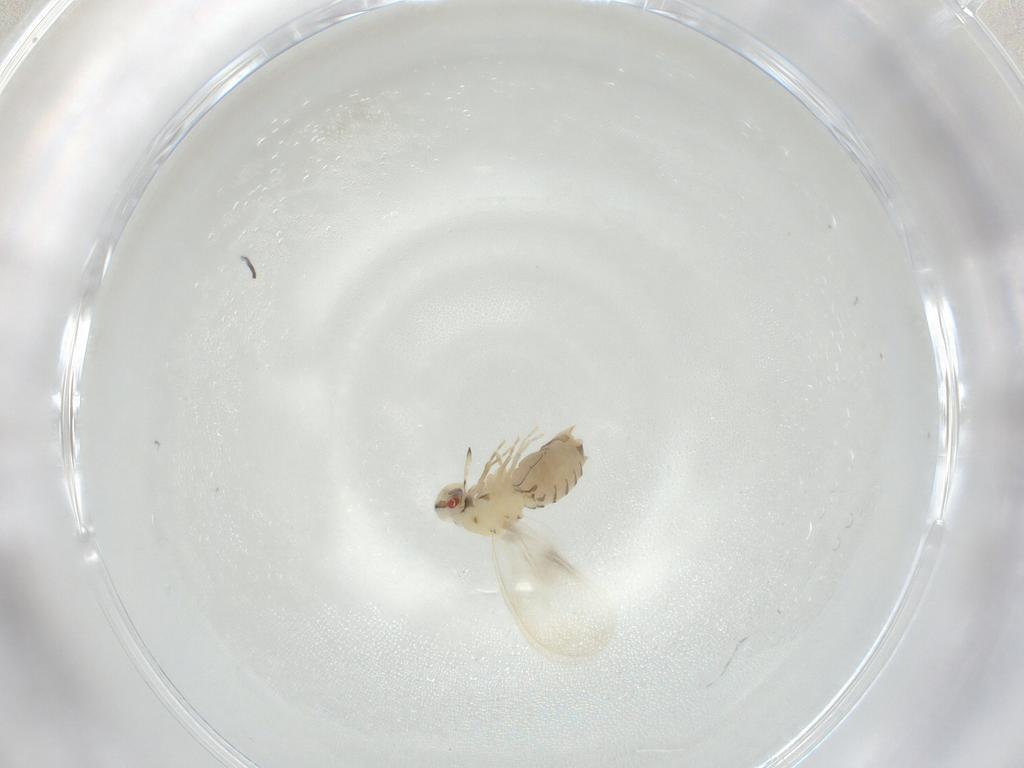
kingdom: Animalia
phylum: Arthropoda
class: Insecta
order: Hemiptera
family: Aleyrodidae
